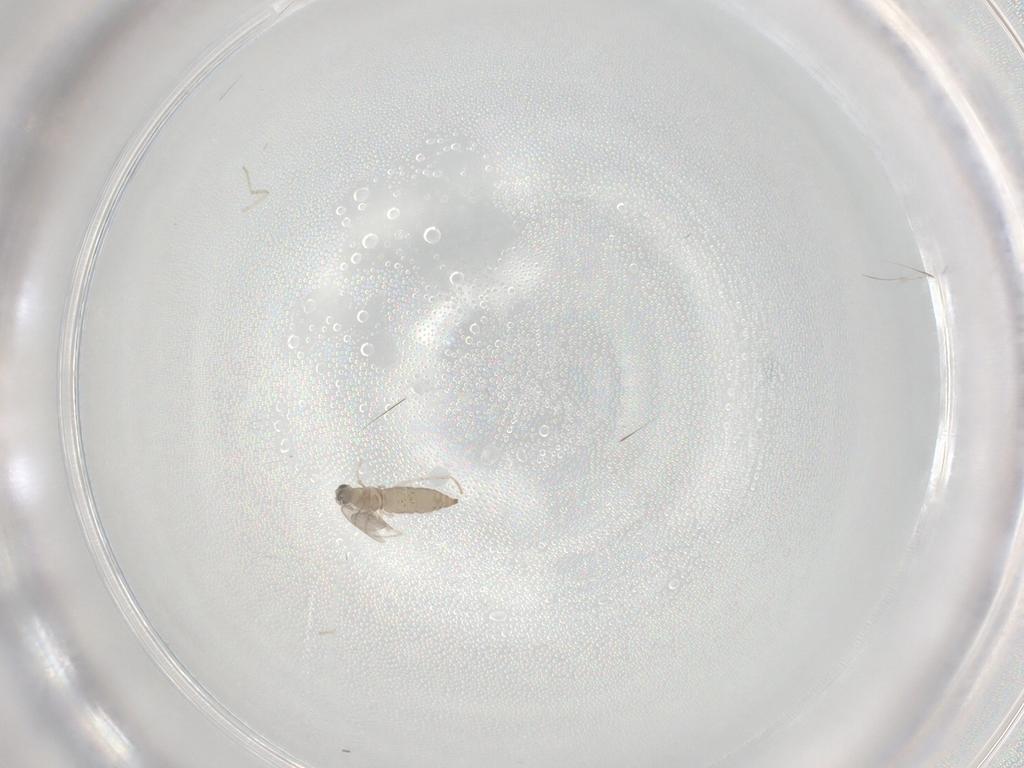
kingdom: Animalia
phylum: Arthropoda
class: Insecta
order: Diptera
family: Cecidomyiidae
